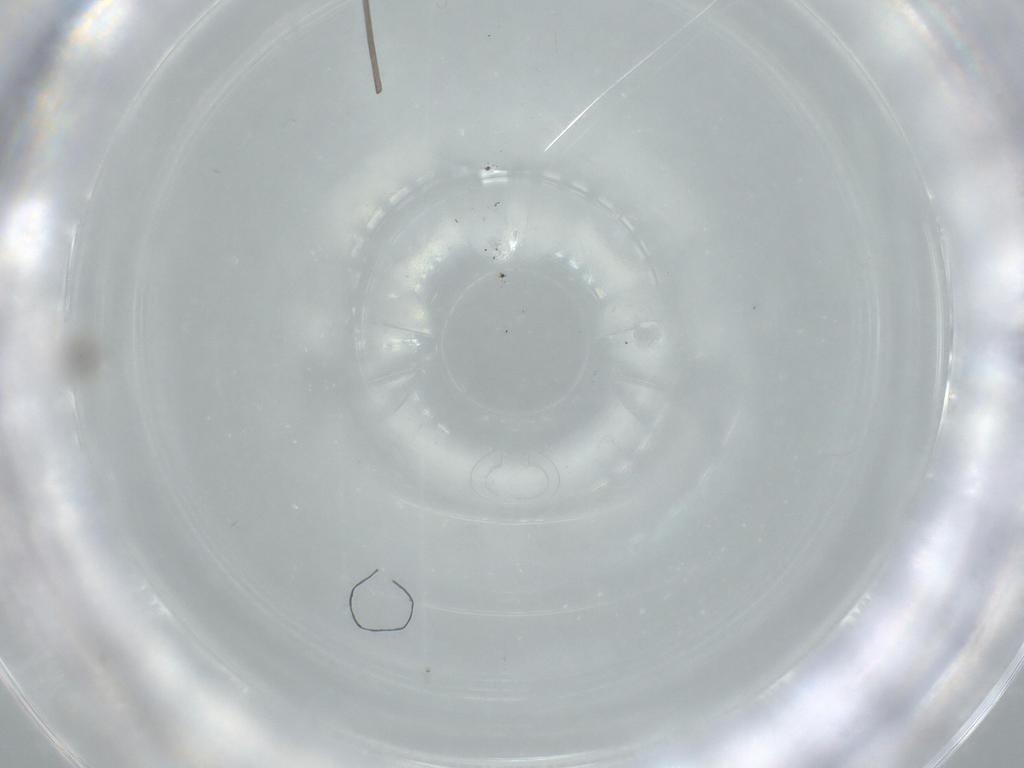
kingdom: Animalia
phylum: Arthropoda
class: Insecta
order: Diptera
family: Cecidomyiidae
